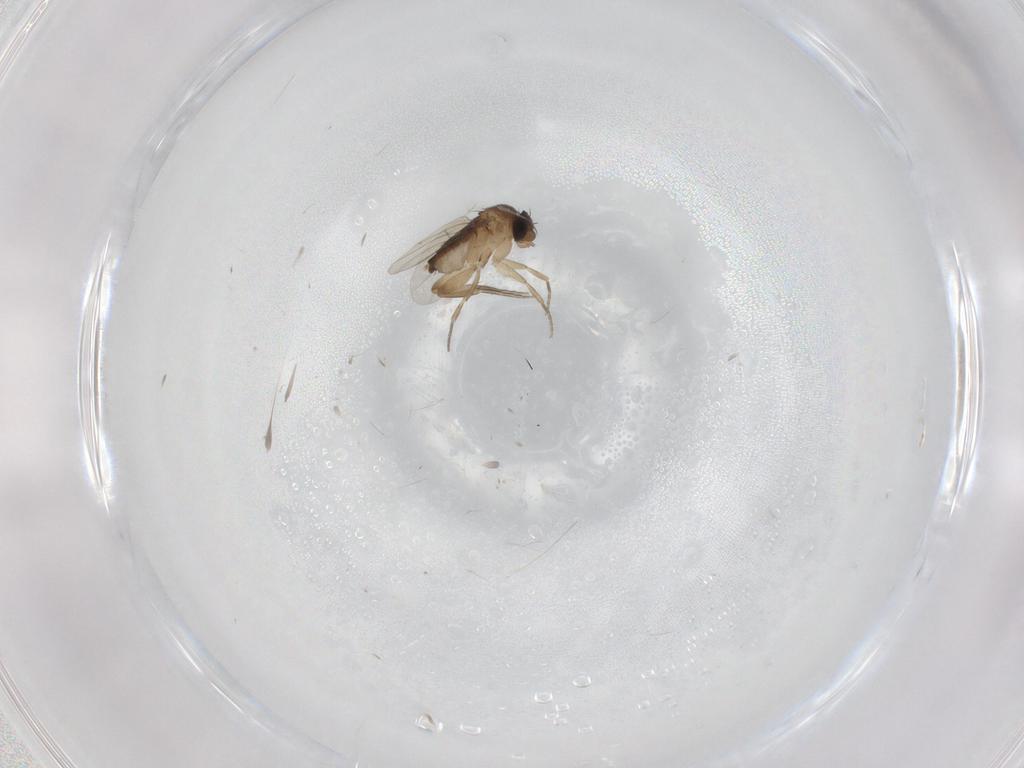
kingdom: Animalia
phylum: Arthropoda
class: Insecta
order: Diptera
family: Phoridae
